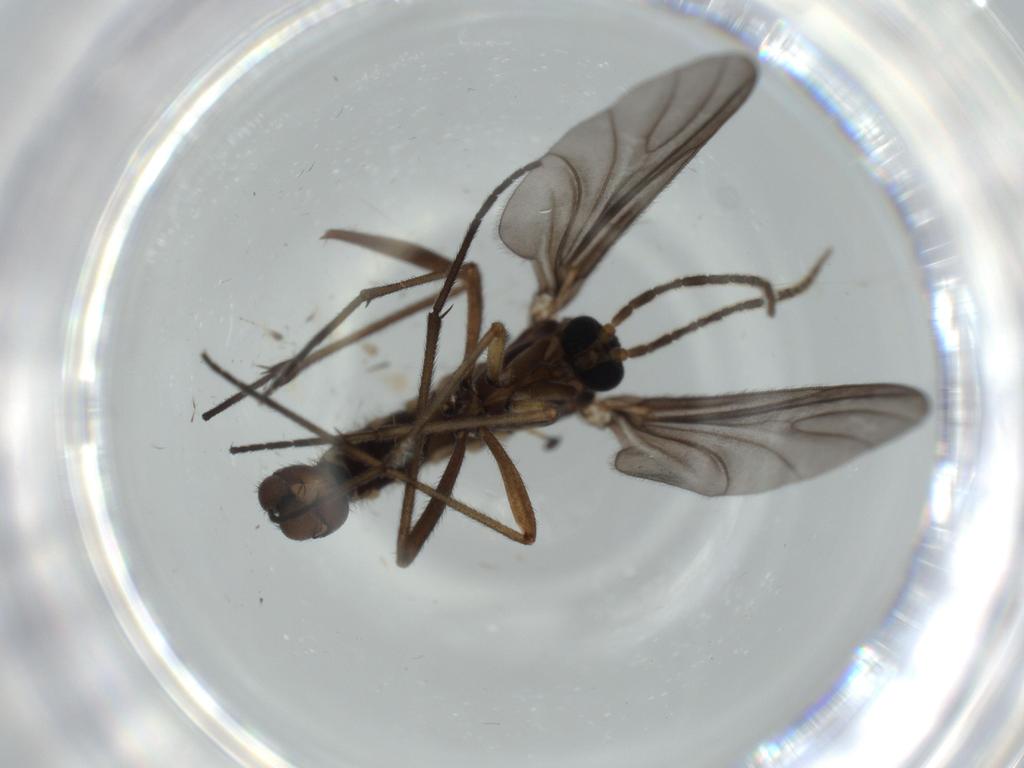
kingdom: Animalia
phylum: Arthropoda
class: Insecta
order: Diptera
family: Sciaridae
